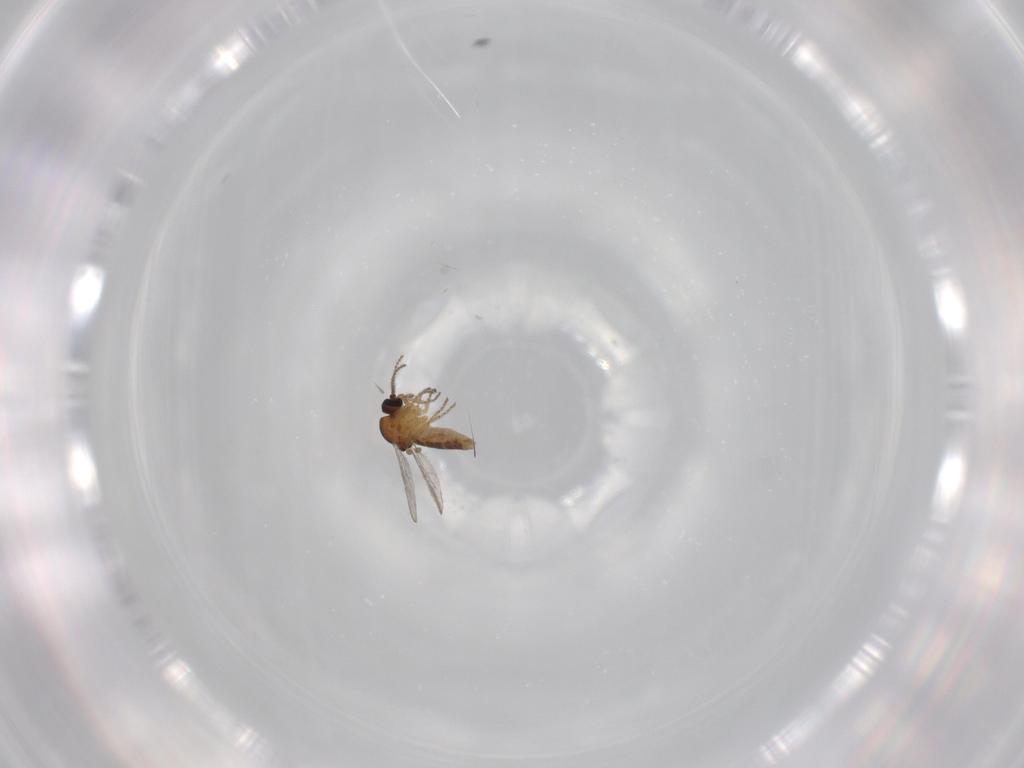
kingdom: Animalia
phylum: Arthropoda
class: Insecta
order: Diptera
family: Ceratopogonidae
